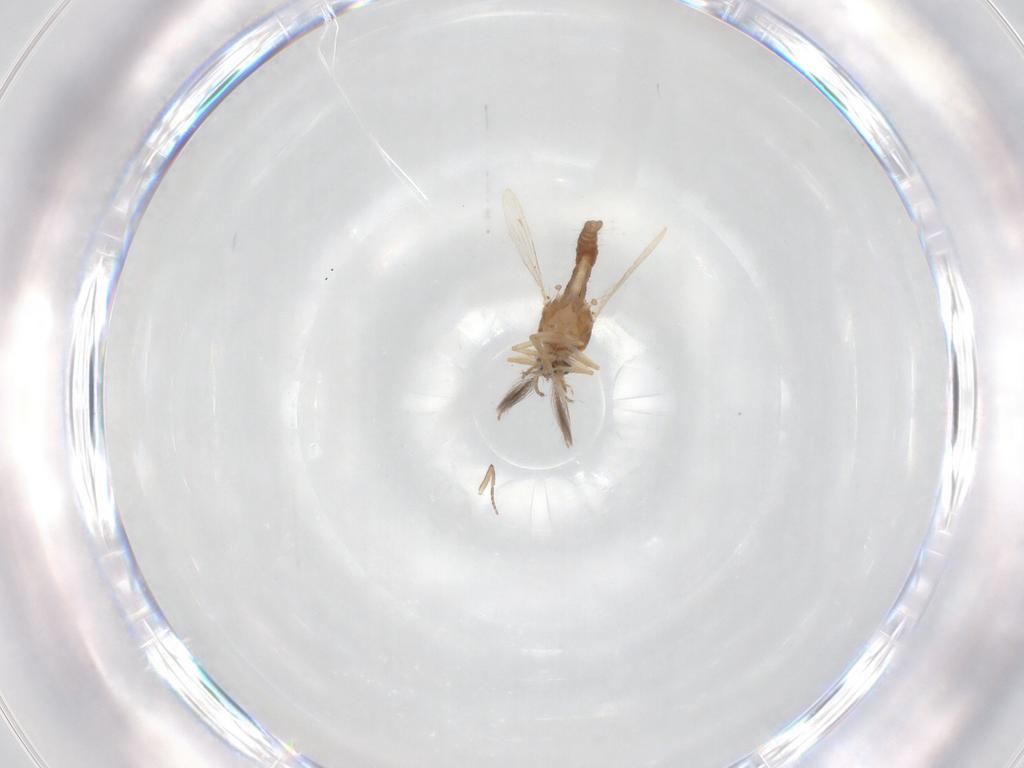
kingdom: Animalia
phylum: Arthropoda
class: Insecta
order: Diptera
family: Ceratopogonidae
